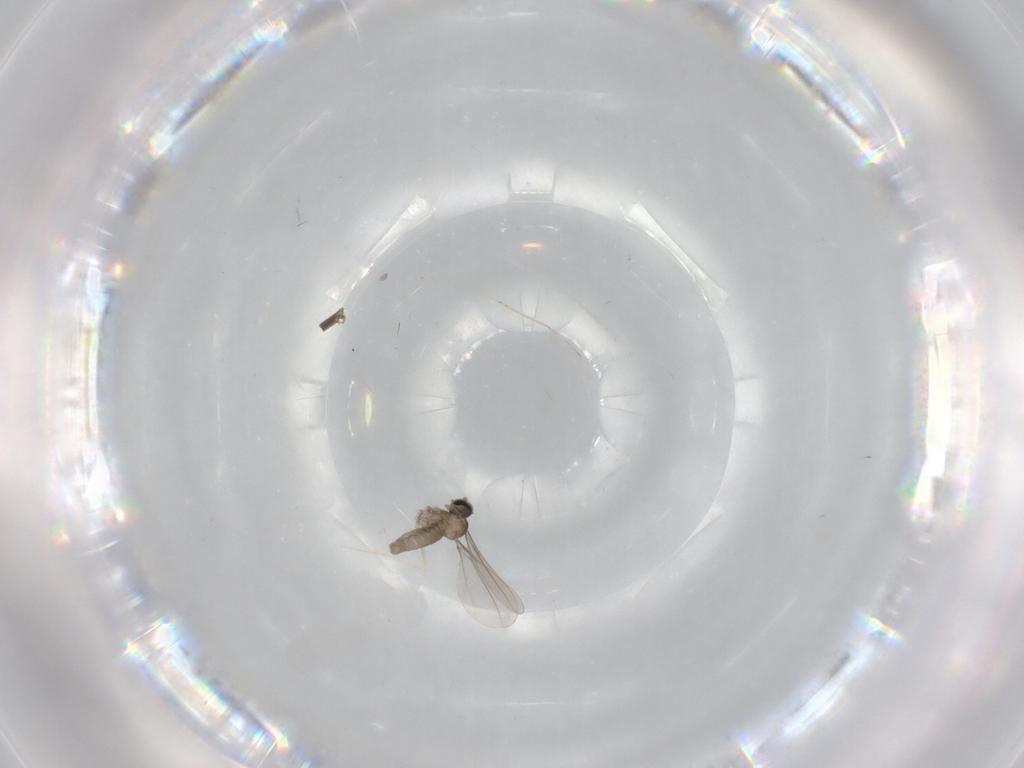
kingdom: Animalia
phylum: Arthropoda
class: Insecta
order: Diptera
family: Cecidomyiidae
